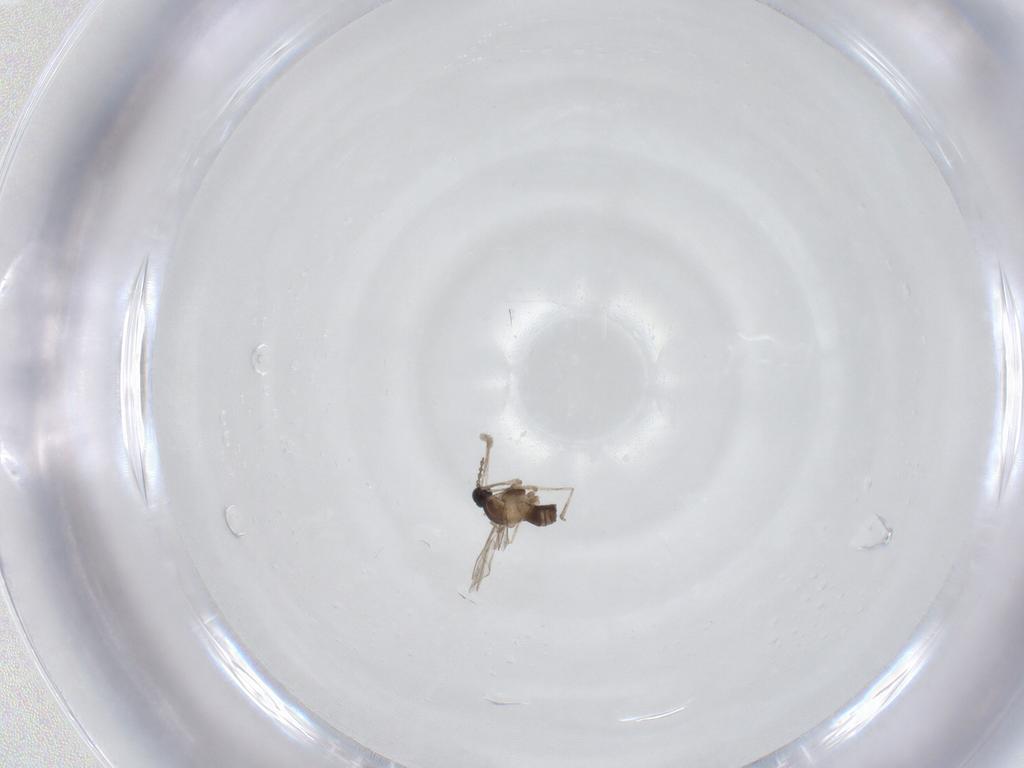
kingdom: Animalia
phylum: Arthropoda
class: Insecta
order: Diptera
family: Cecidomyiidae
